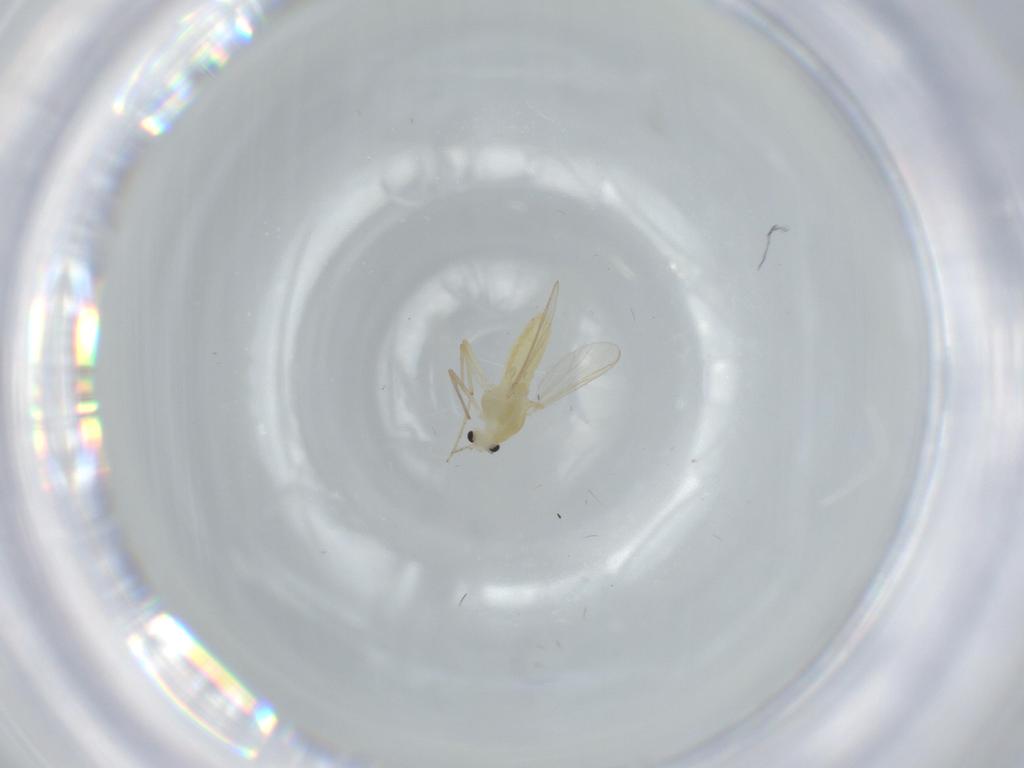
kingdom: Animalia
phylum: Arthropoda
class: Insecta
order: Diptera
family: Chironomidae
